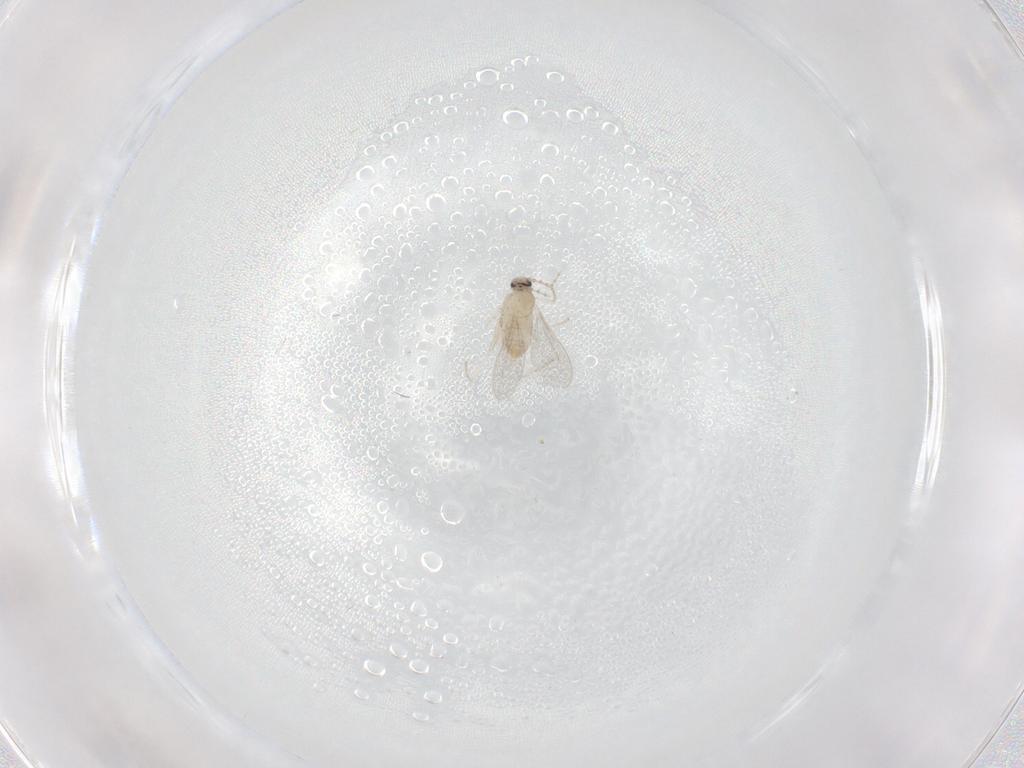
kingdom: Animalia
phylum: Arthropoda
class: Insecta
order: Diptera
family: Cecidomyiidae
